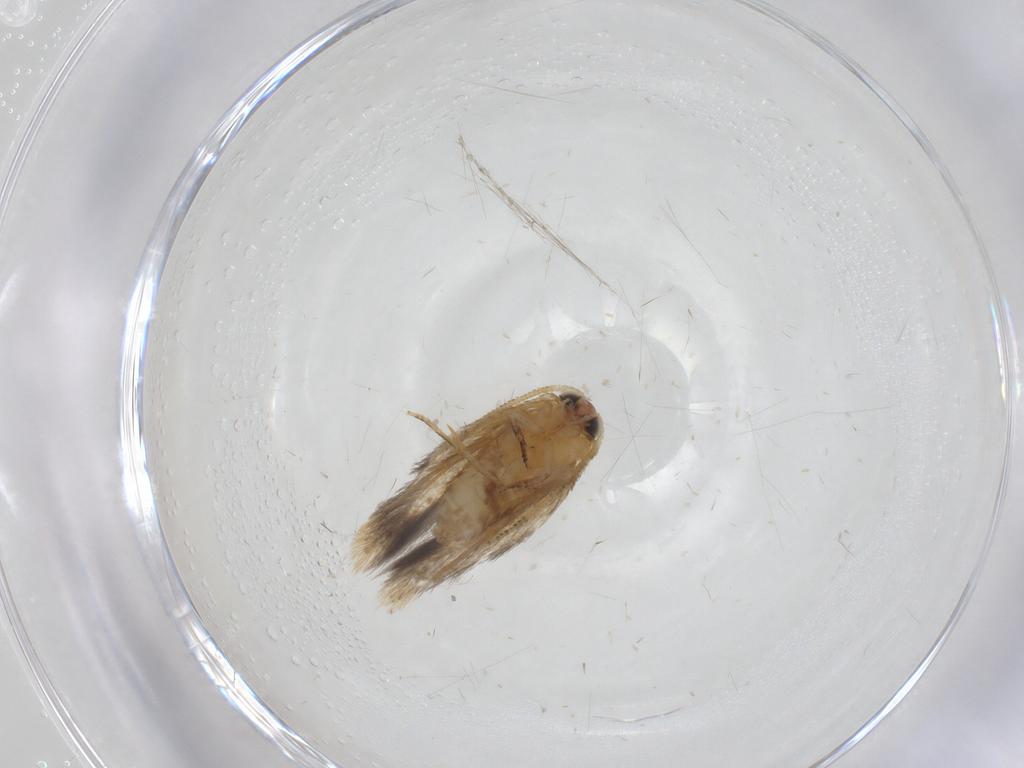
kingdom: Animalia
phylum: Arthropoda
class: Insecta
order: Lepidoptera
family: Nepticulidae
